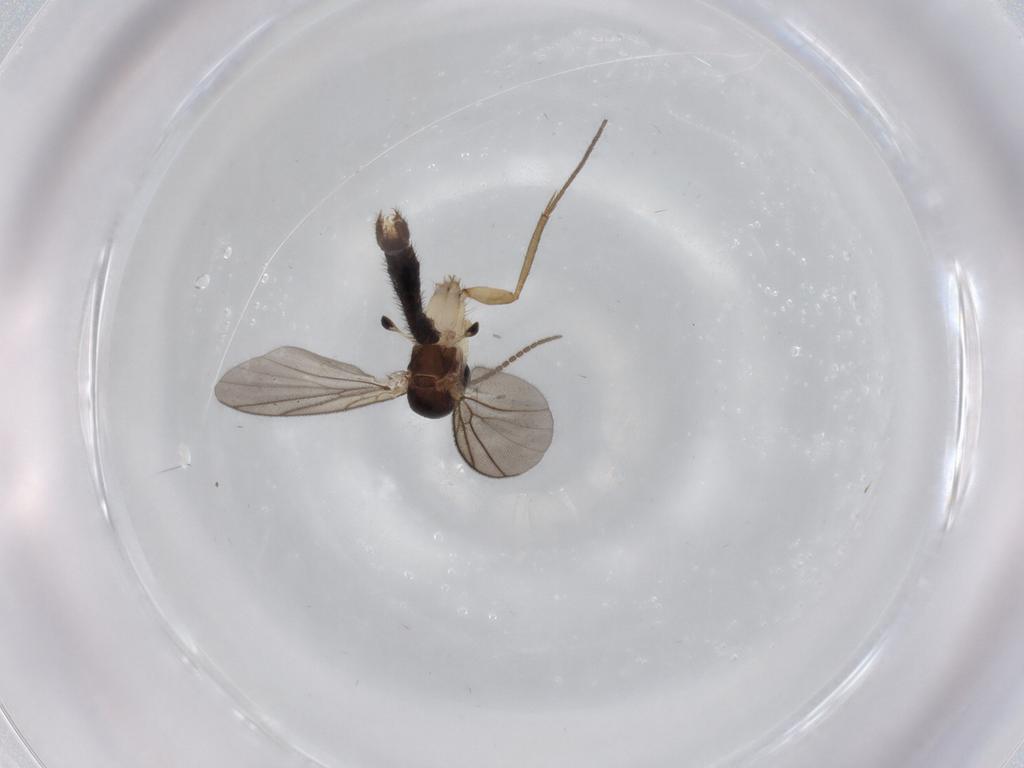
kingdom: Animalia
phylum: Arthropoda
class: Insecta
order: Diptera
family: Mycetophilidae
